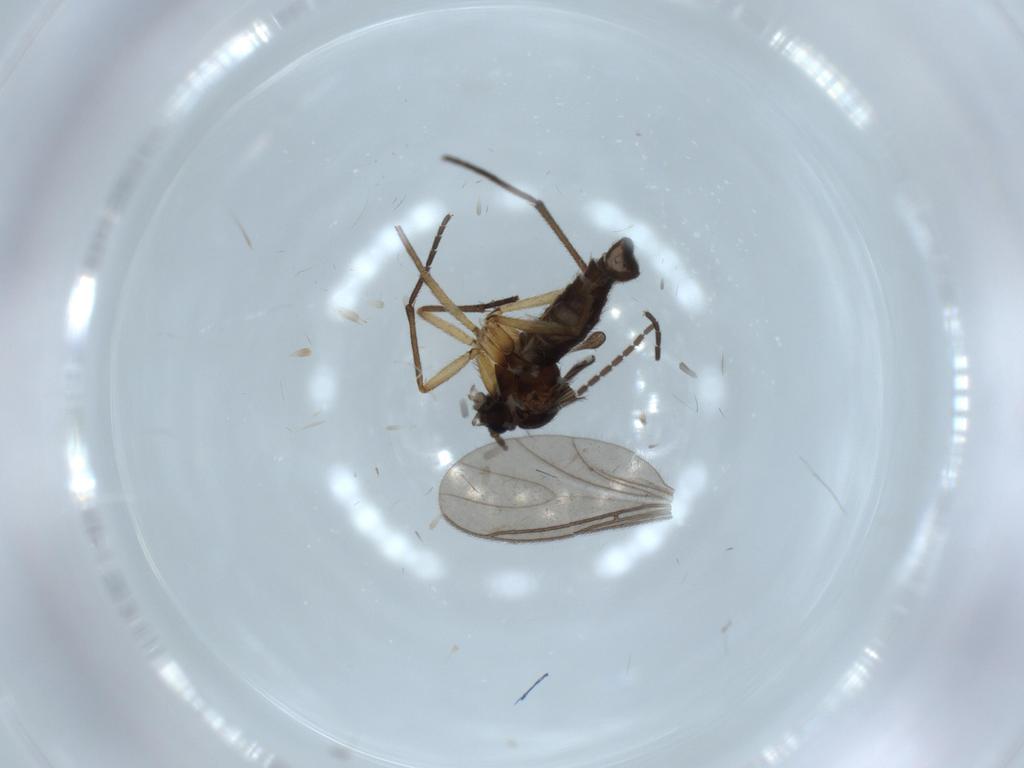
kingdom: Animalia
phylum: Arthropoda
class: Insecta
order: Diptera
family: Sciaridae
